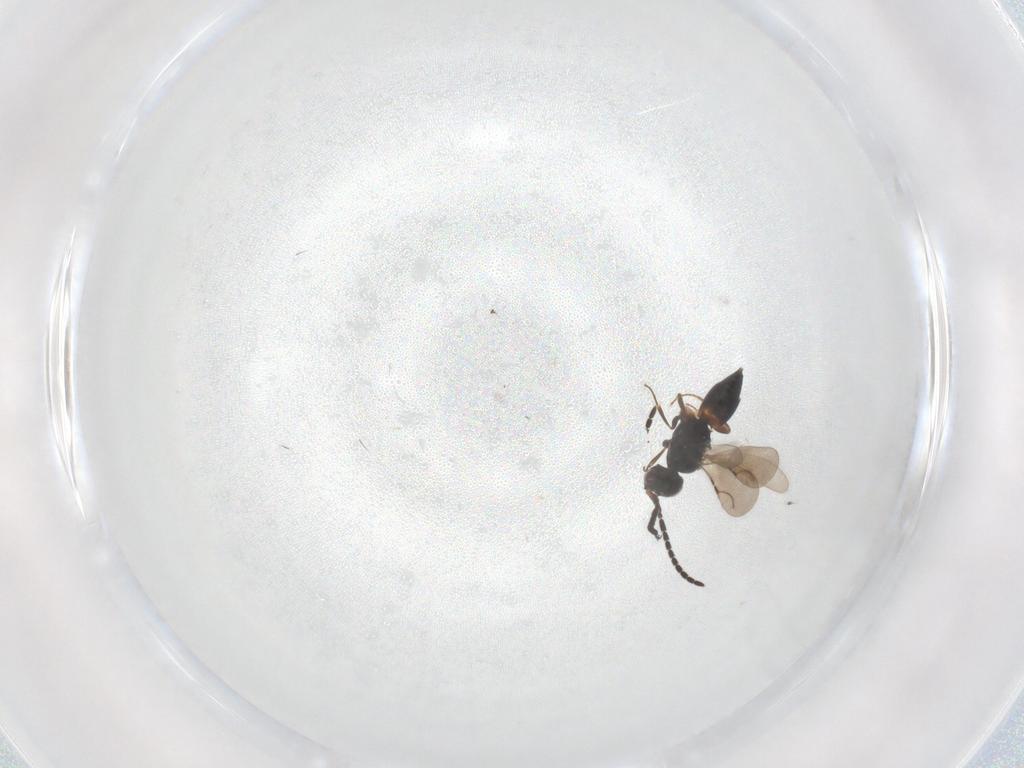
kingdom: Animalia
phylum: Arthropoda
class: Insecta
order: Hymenoptera
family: Ceraphronidae
